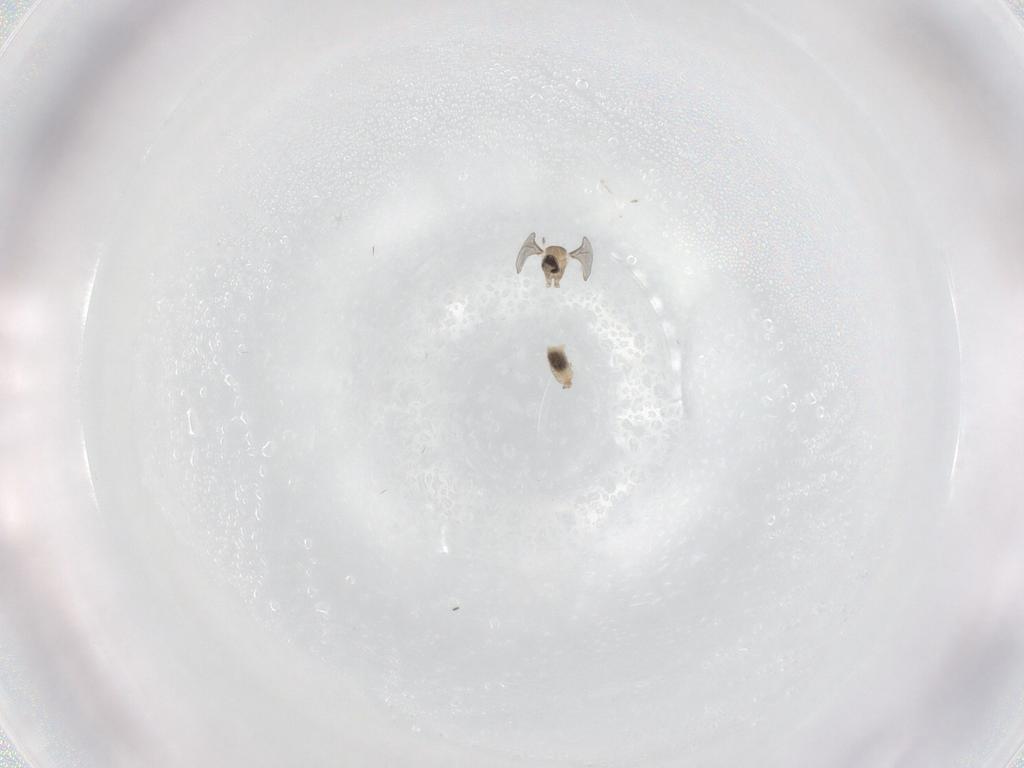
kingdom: Animalia
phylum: Arthropoda
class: Insecta
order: Diptera
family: Cecidomyiidae
